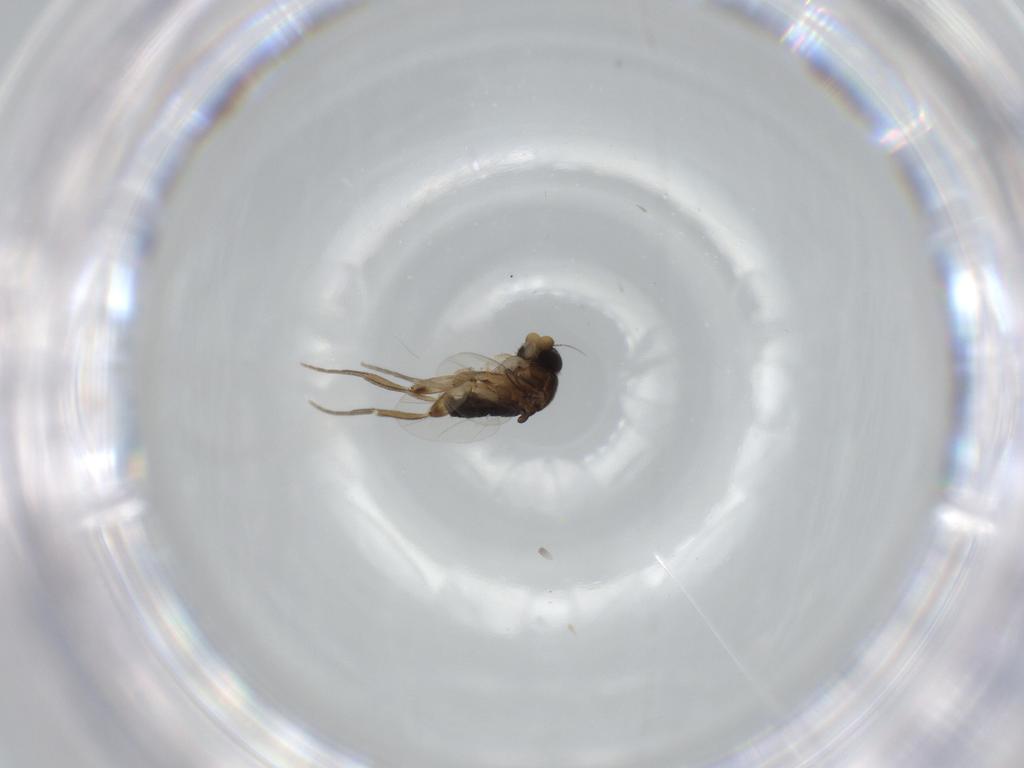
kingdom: Animalia
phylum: Arthropoda
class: Insecta
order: Diptera
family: Phoridae
